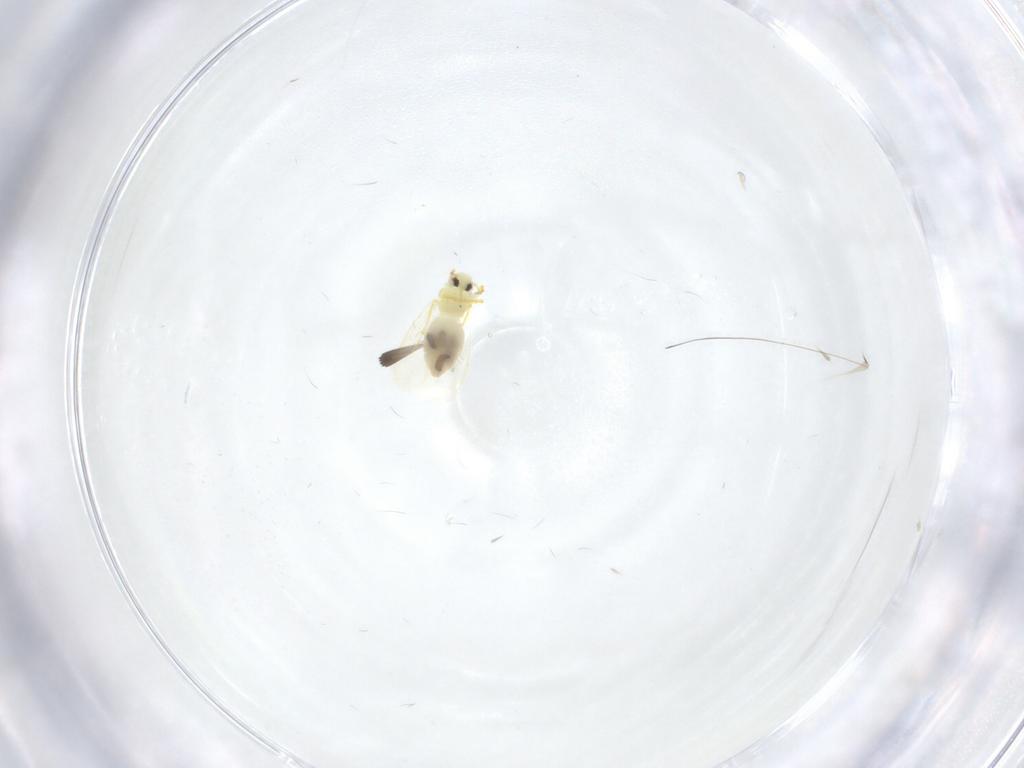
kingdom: Animalia
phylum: Arthropoda
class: Insecta
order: Hemiptera
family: Aleyrodidae
